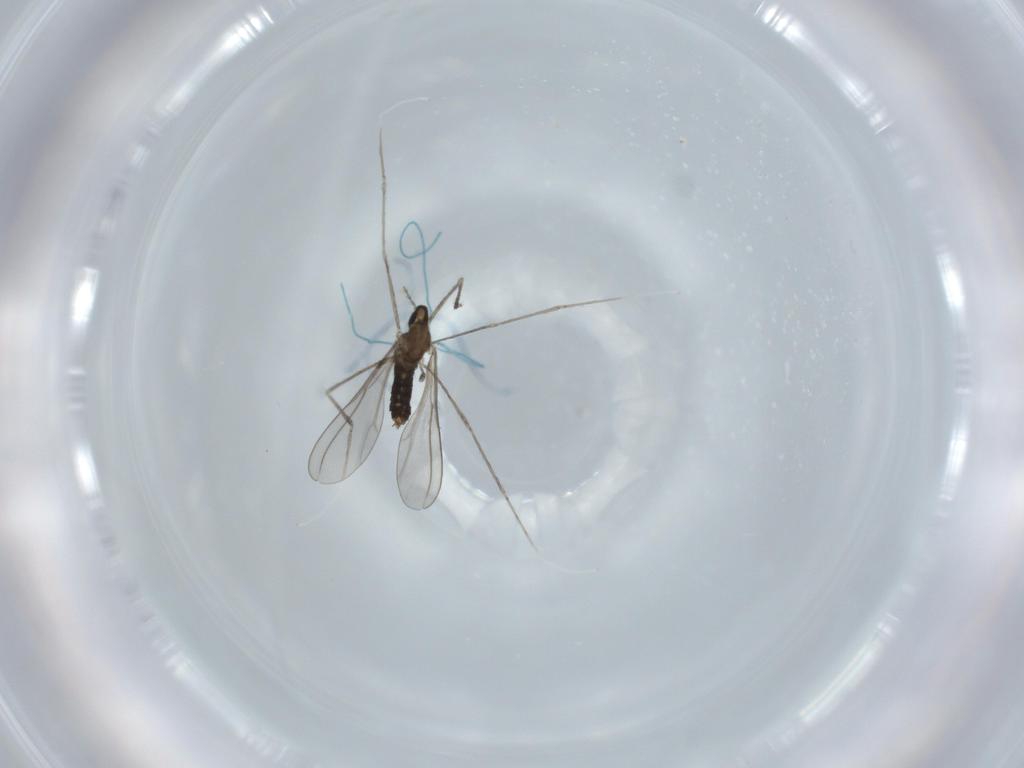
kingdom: Animalia
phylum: Arthropoda
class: Insecta
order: Diptera
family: Cecidomyiidae
